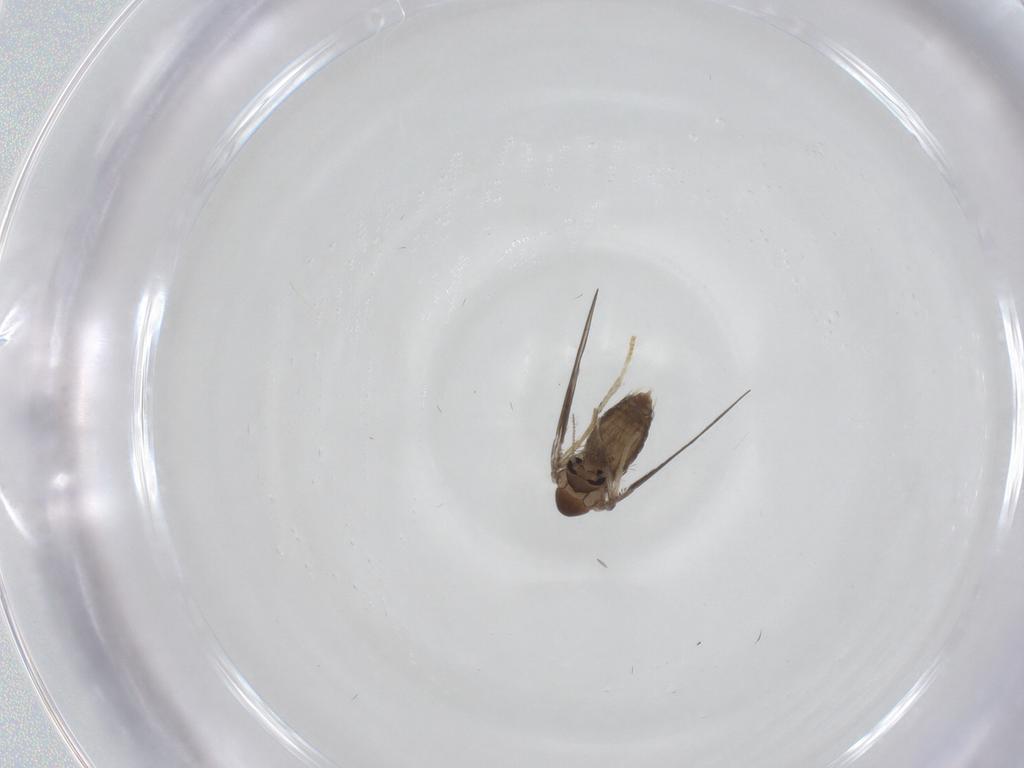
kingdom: Animalia
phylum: Arthropoda
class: Insecta
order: Diptera
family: Psychodidae
